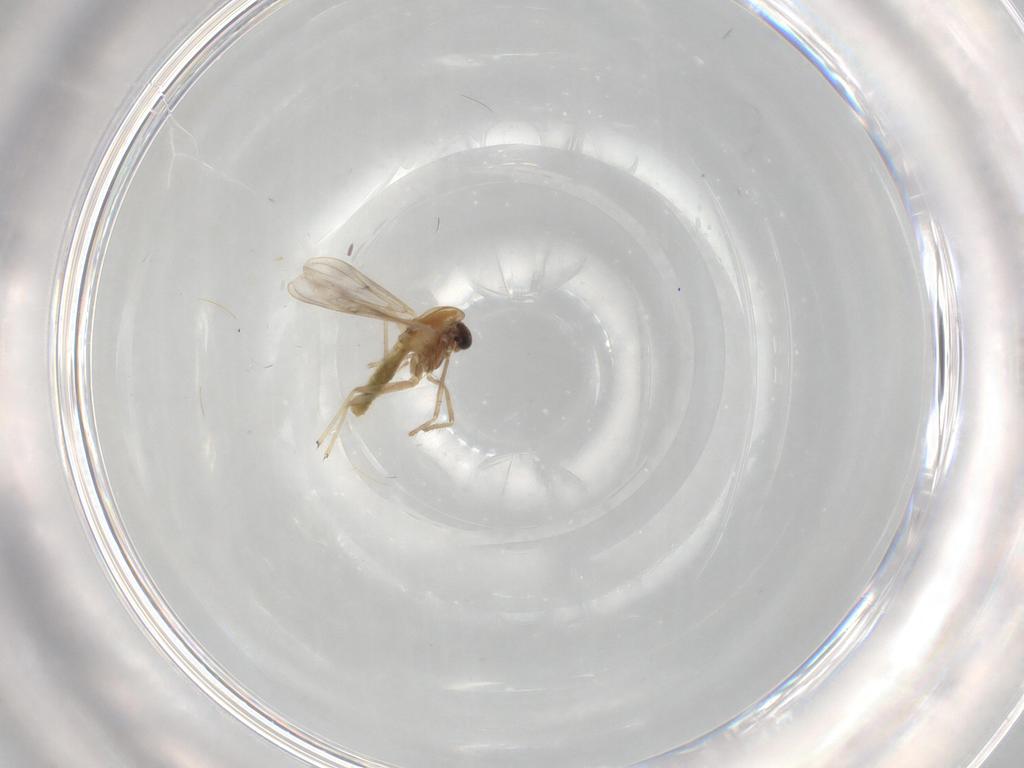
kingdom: Animalia
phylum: Arthropoda
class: Insecta
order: Diptera
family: Chironomidae
